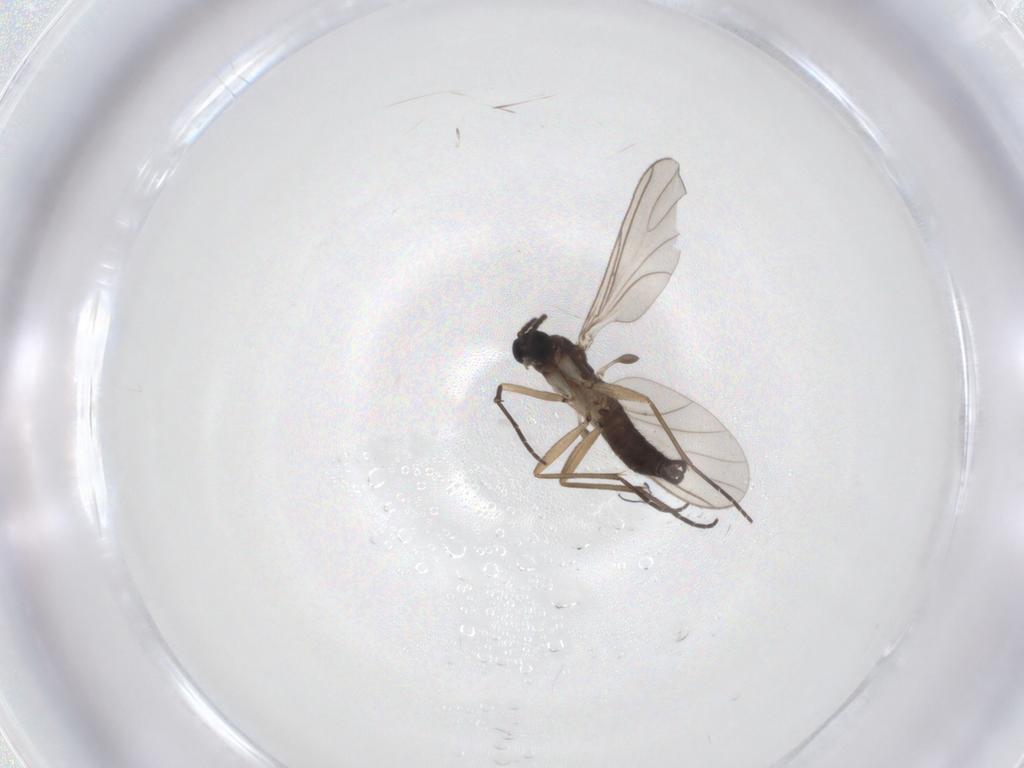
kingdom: Animalia
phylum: Arthropoda
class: Insecta
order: Diptera
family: Sciaridae
